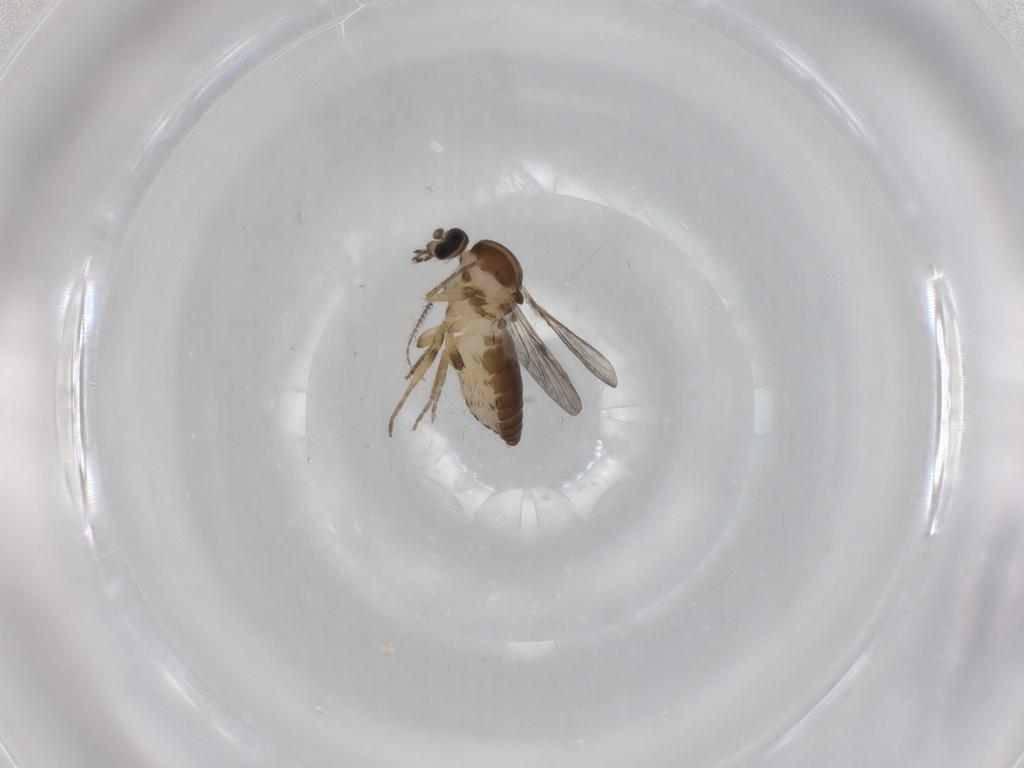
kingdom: Animalia
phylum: Arthropoda
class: Insecta
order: Diptera
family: Ceratopogonidae
